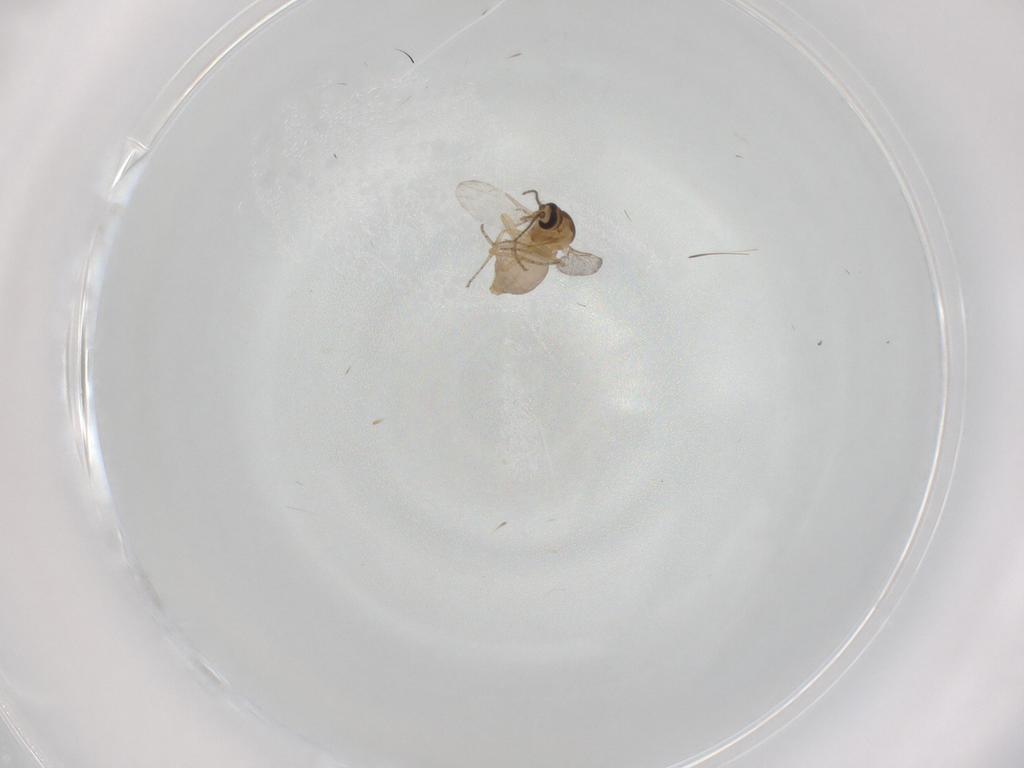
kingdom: Animalia
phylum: Arthropoda
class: Insecta
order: Diptera
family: Ceratopogonidae
